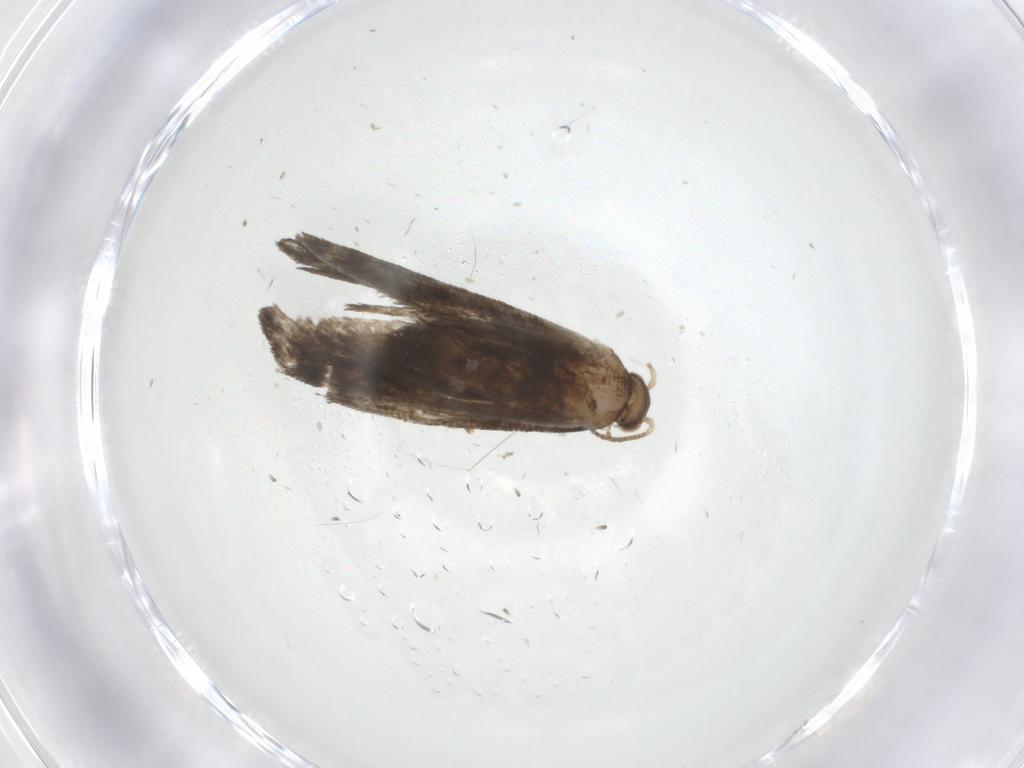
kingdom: Animalia
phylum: Arthropoda
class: Insecta
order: Lepidoptera
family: Tineidae
